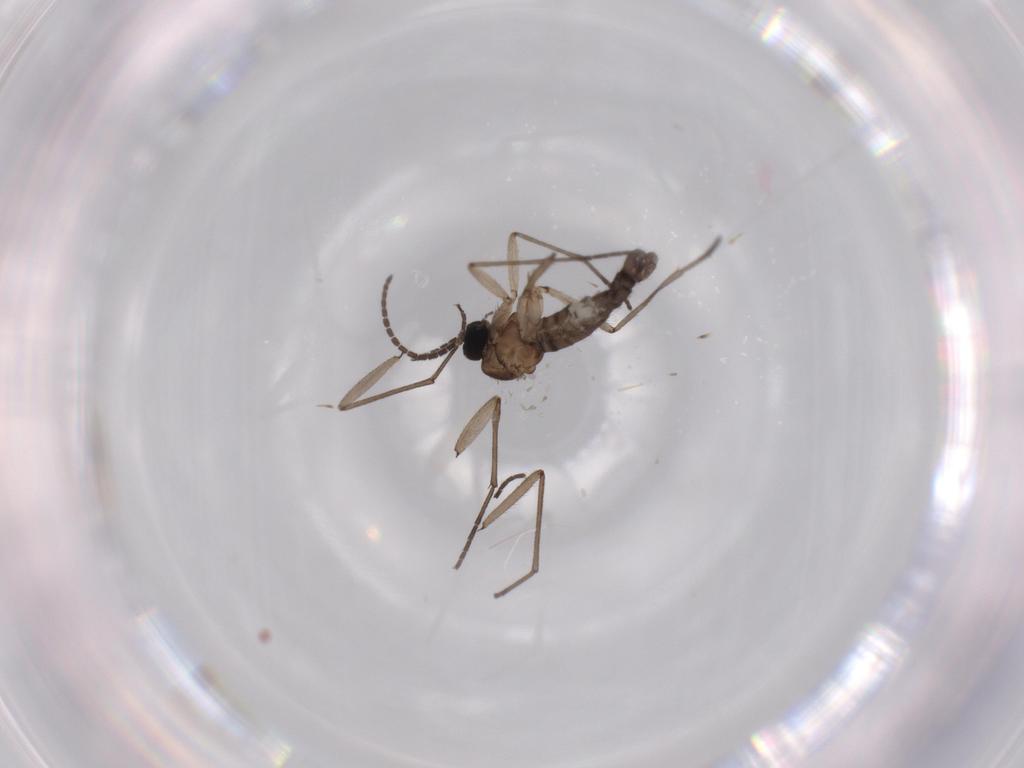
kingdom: Animalia
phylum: Arthropoda
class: Insecta
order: Diptera
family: Sciaridae
